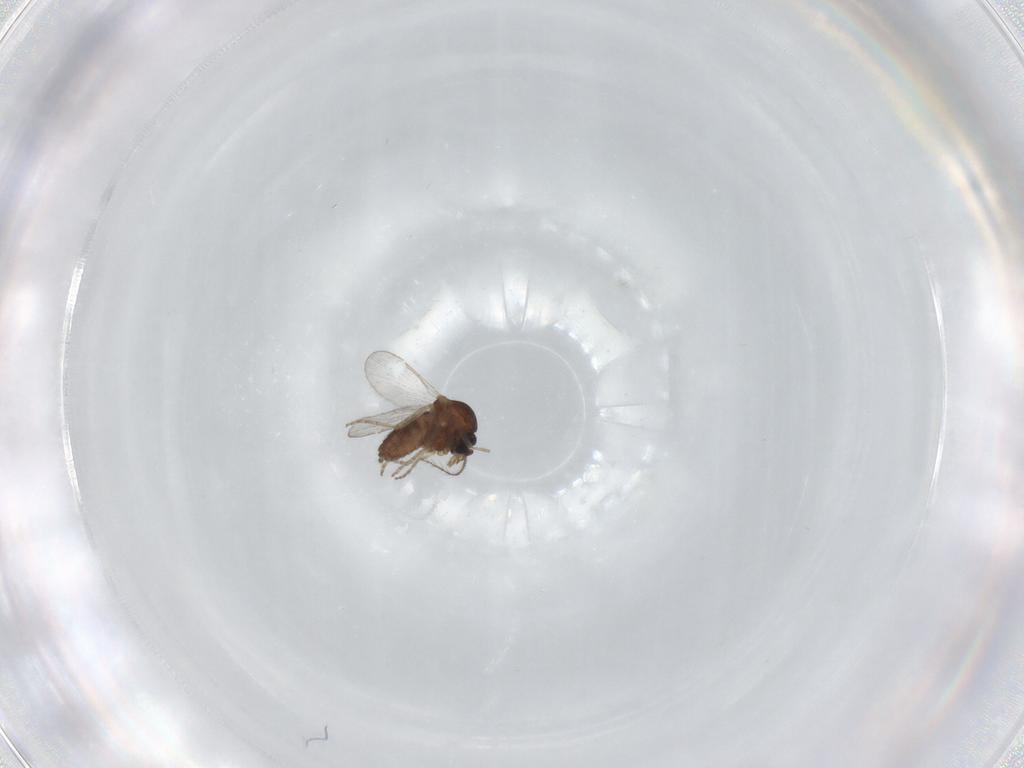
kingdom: Animalia
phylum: Arthropoda
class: Insecta
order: Diptera
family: Ceratopogonidae
